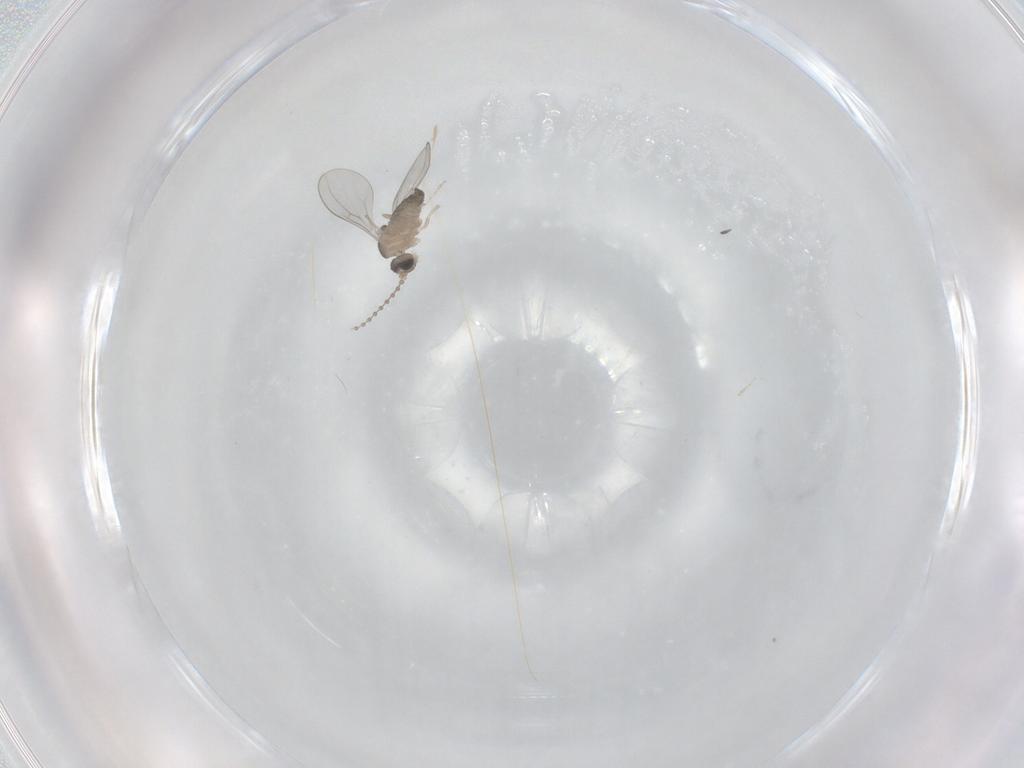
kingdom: Animalia
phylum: Arthropoda
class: Insecta
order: Diptera
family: Cecidomyiidae
